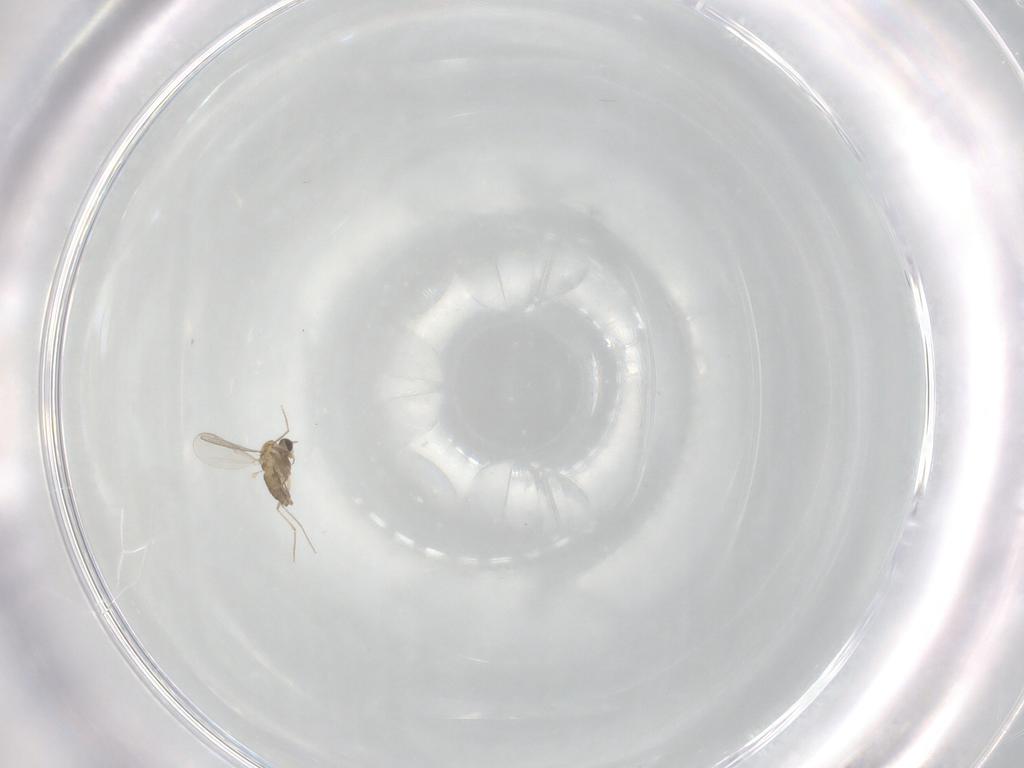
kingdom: Animalia
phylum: Arthropoda
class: Insecta
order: Diptera
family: Chironomidae
